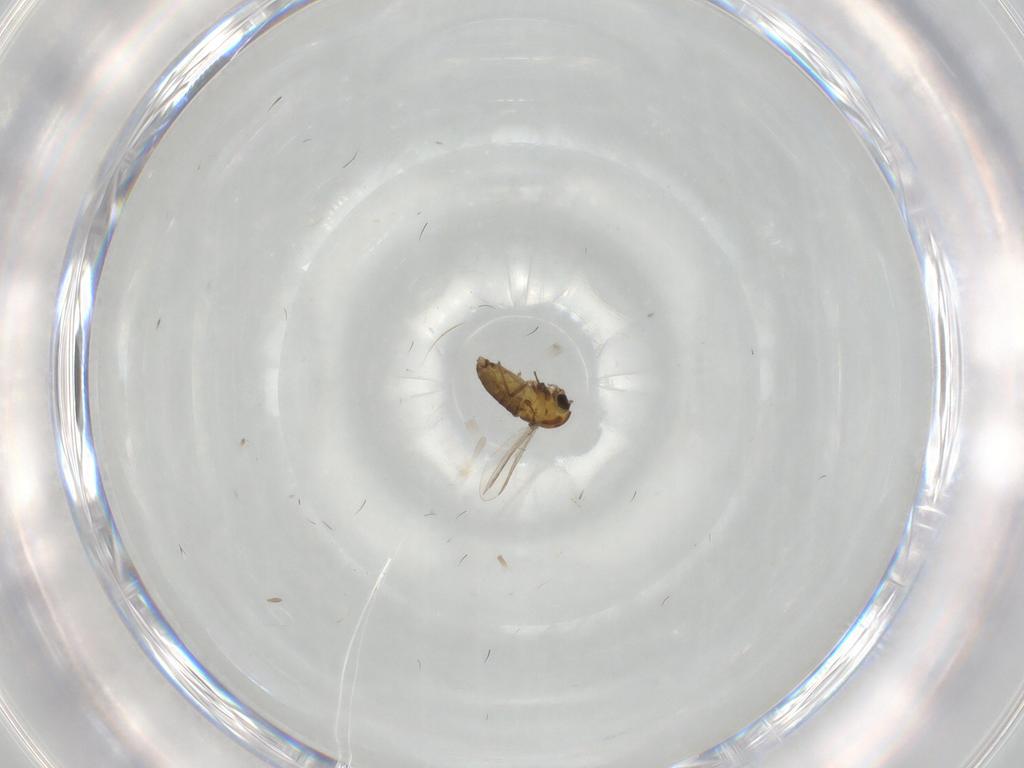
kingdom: Animalia
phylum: Arthropoda
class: Insecta
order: Diptera
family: Chironomidae
